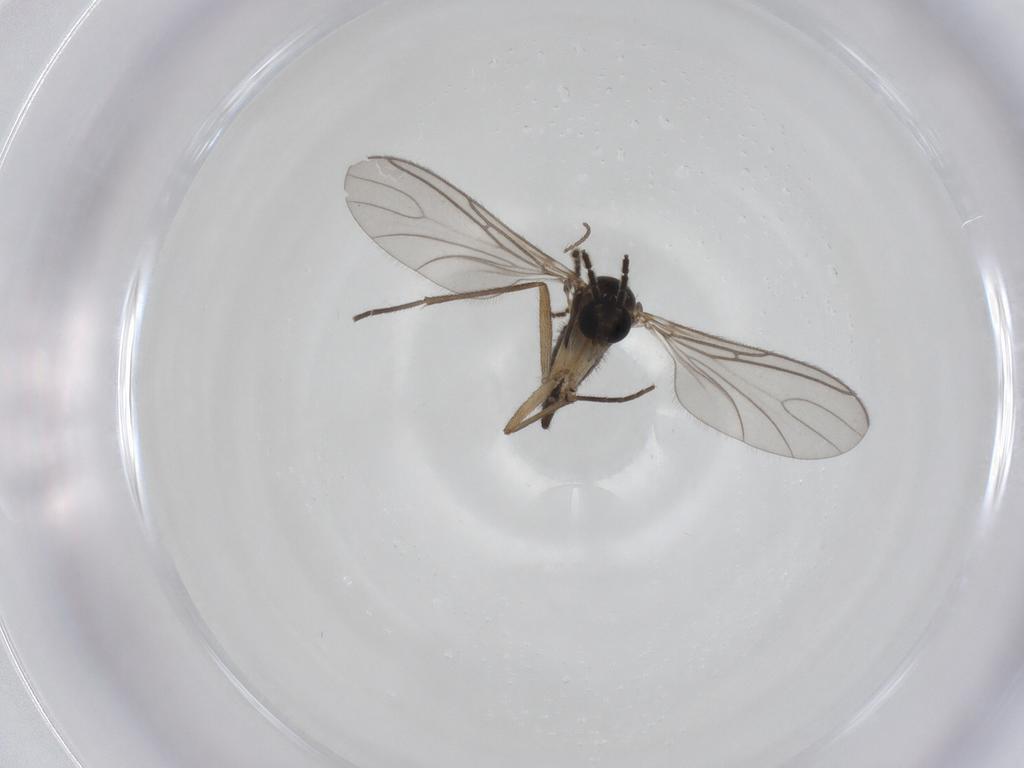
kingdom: Animalia
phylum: Arthropoda
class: Insecta
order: Diptera
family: Sciaridae
